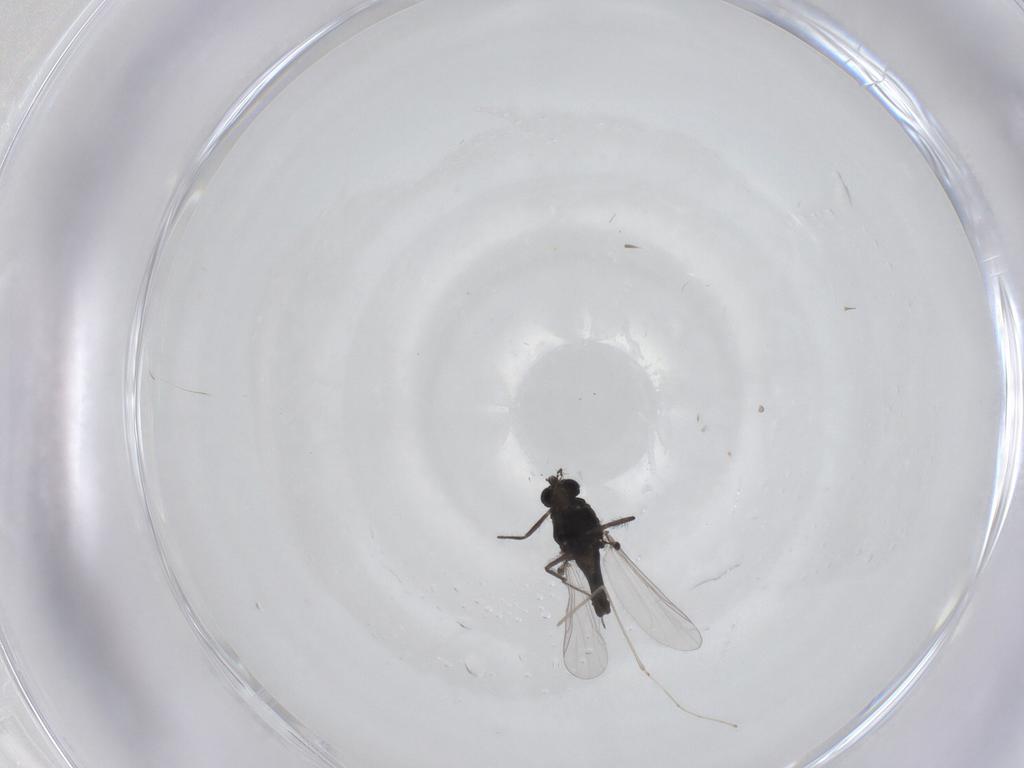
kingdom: Animalia
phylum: Arthropoda
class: Insecta
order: Diptera
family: Chironomidae
